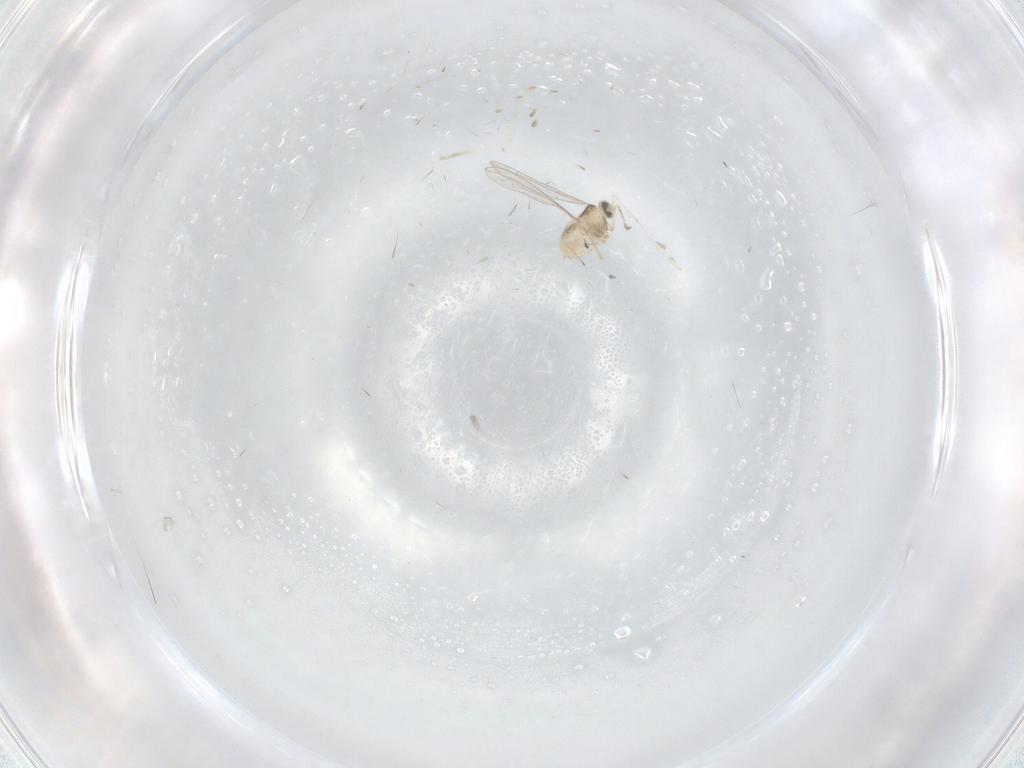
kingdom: Animalia
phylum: Arthropoda
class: Insecta
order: Diptera
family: Cecidomyiidae
